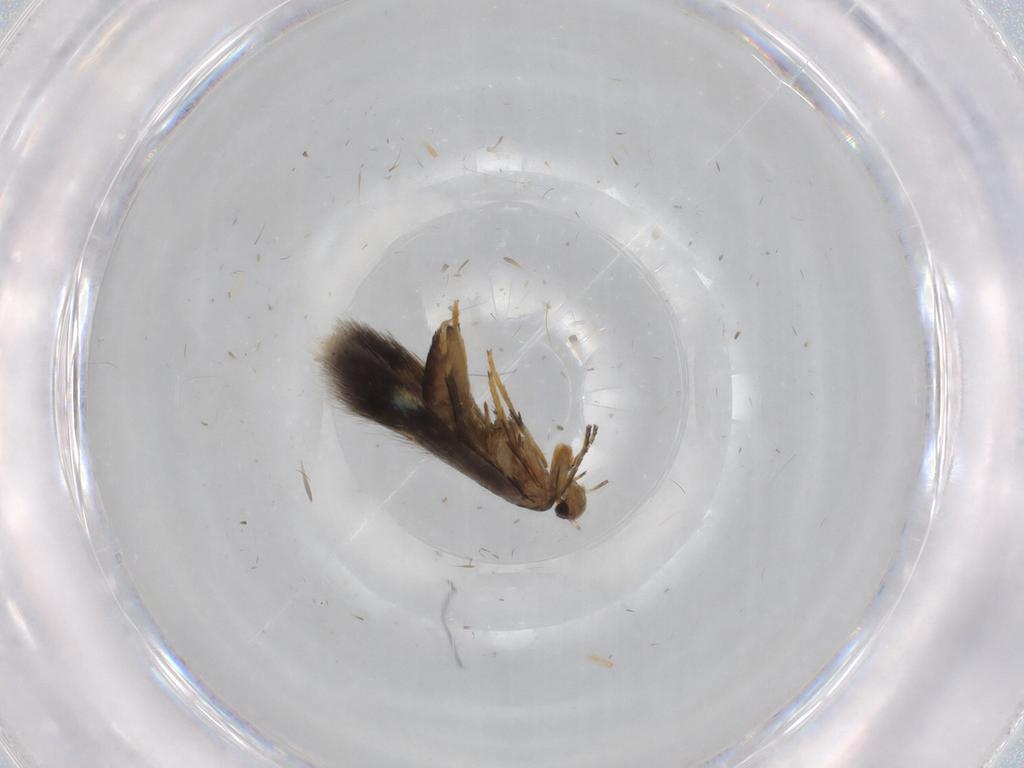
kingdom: Animalia
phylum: Arthropoda
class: Insecta
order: Lepidoptera
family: Heliozelidae
